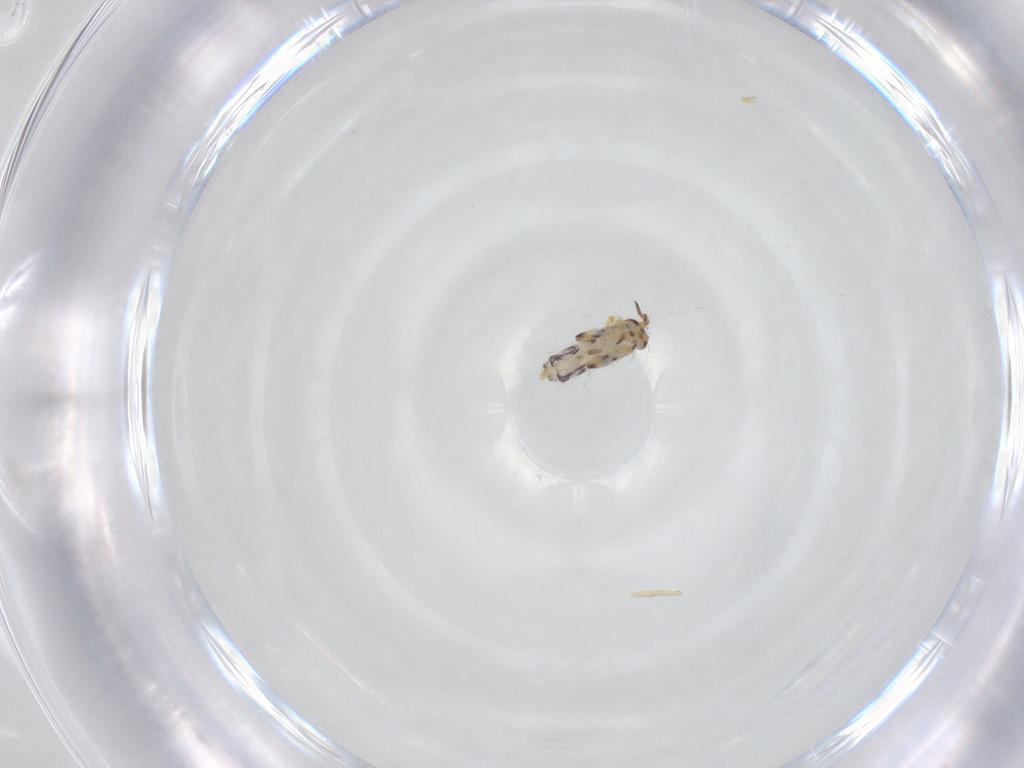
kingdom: Animalia
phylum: Arthropoda
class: Collembola
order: Entomobryomorpha
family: Isotomidae
